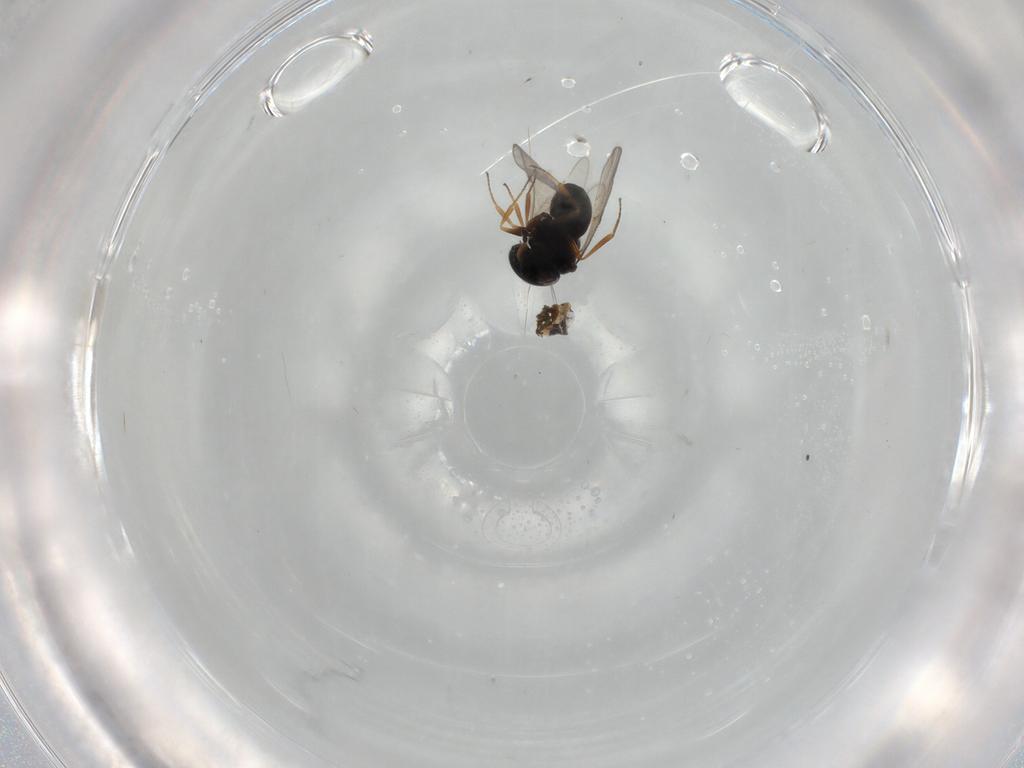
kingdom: Animalia
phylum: Arthropoda
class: Insecta
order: Hymenoptera
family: Scelionidae
